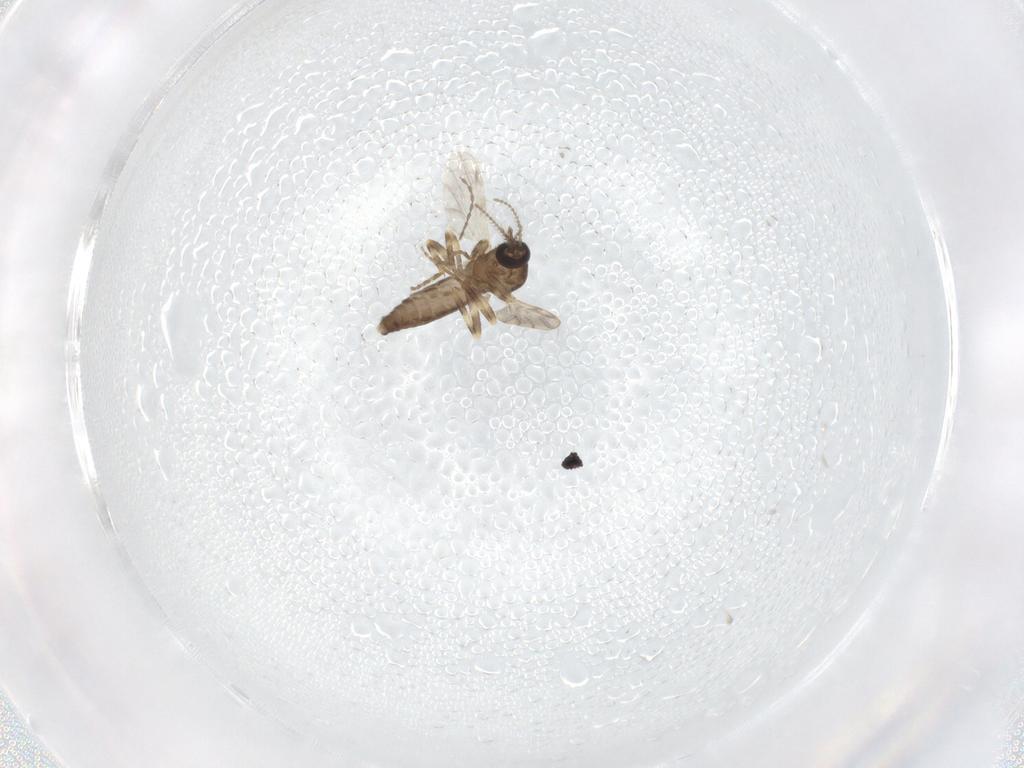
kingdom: Animalia
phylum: Arthropoda
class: Insecta
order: Diptera
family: Ceratopogonidae
